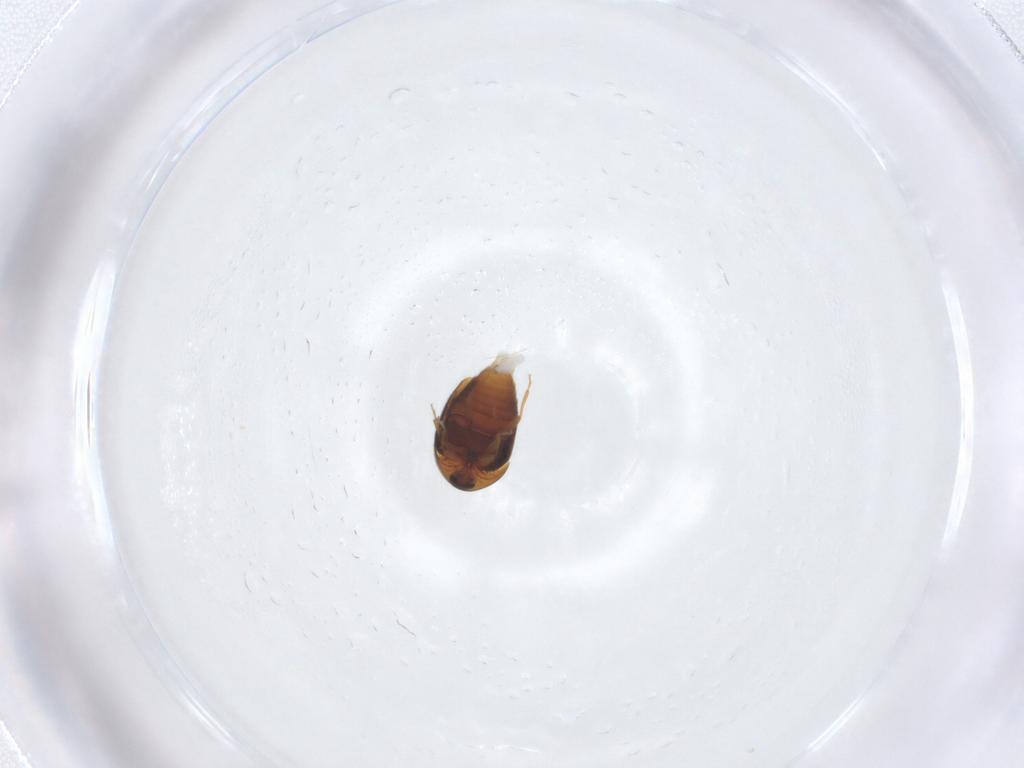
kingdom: Animalia
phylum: Arthropoda
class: Insecta
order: Coleoptera
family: Corylophidae
